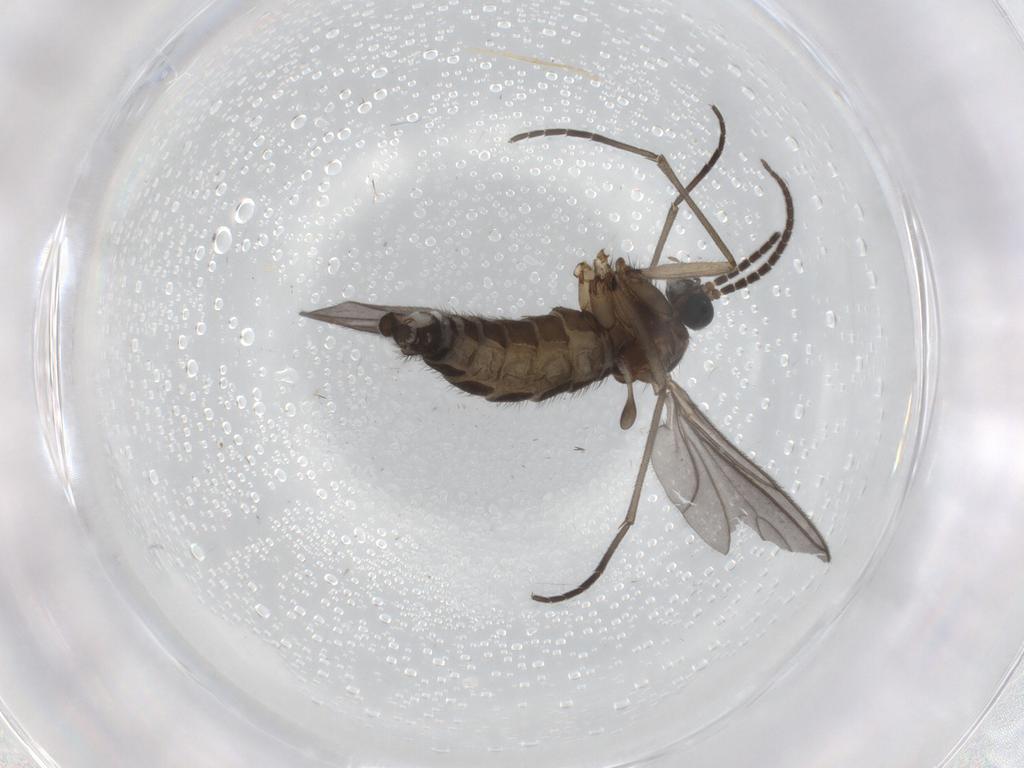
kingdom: Animalia
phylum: Arthropoda
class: Insecta
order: Diptera
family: Sciaridae
